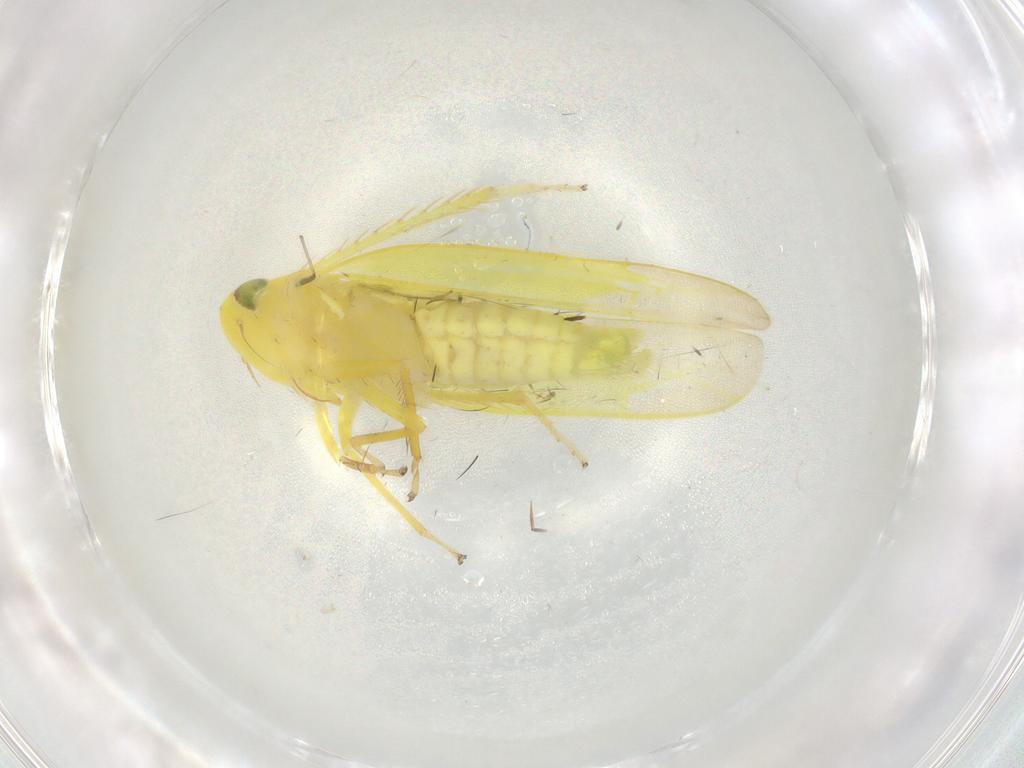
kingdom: Animalia
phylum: Arthropoda
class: Insecta
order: Hemiptera
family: Cicadellidae
